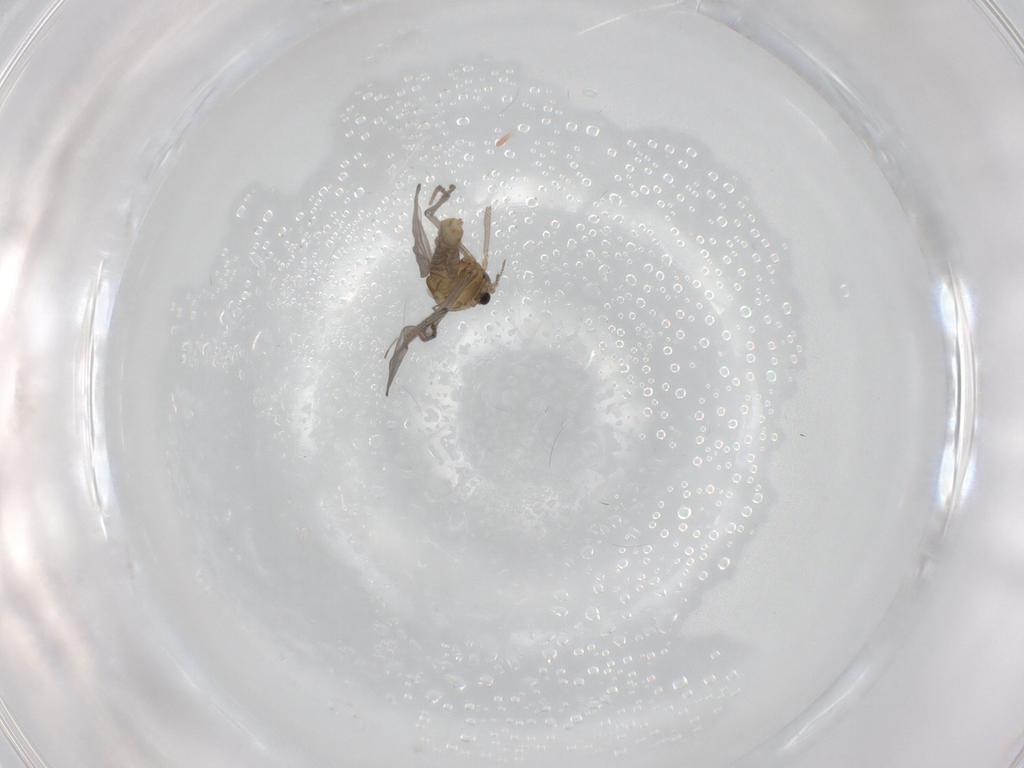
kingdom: Animalia
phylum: Arthropoda
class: Insecta
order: Diptera
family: Chironomidae
